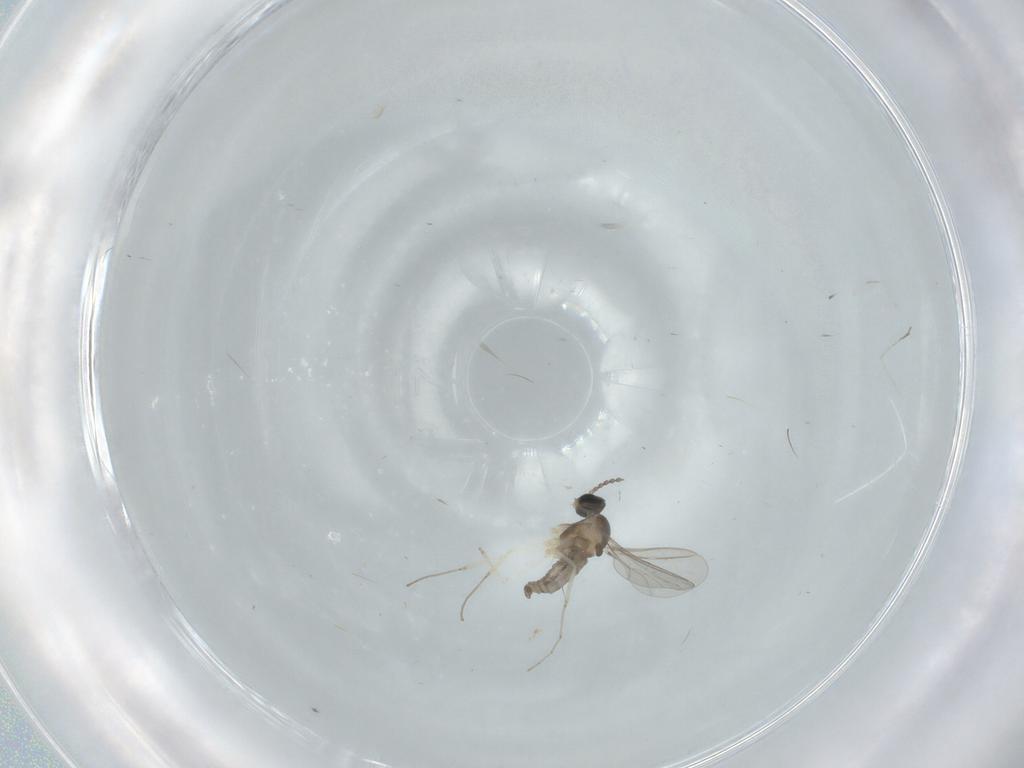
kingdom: Animalia
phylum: Arthropoda
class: Insecta
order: Diptera
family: Cecidomyiidae
